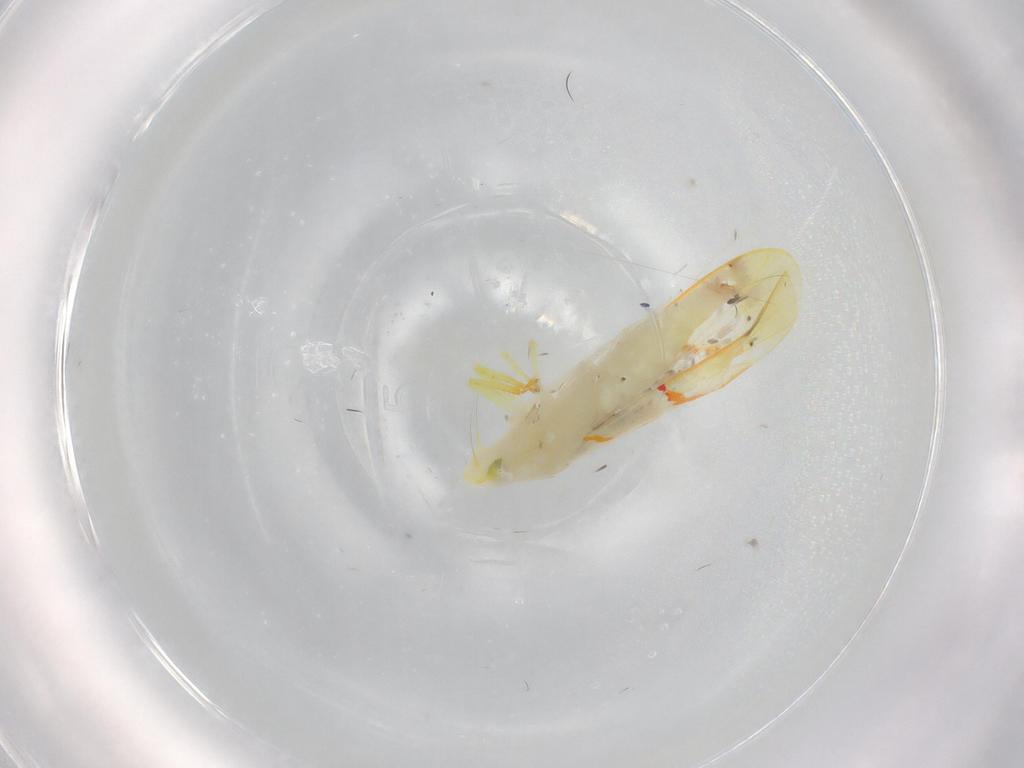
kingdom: Animalia
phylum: Arthropoda
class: Insecta
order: Hemiptera
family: Cicadellidae
